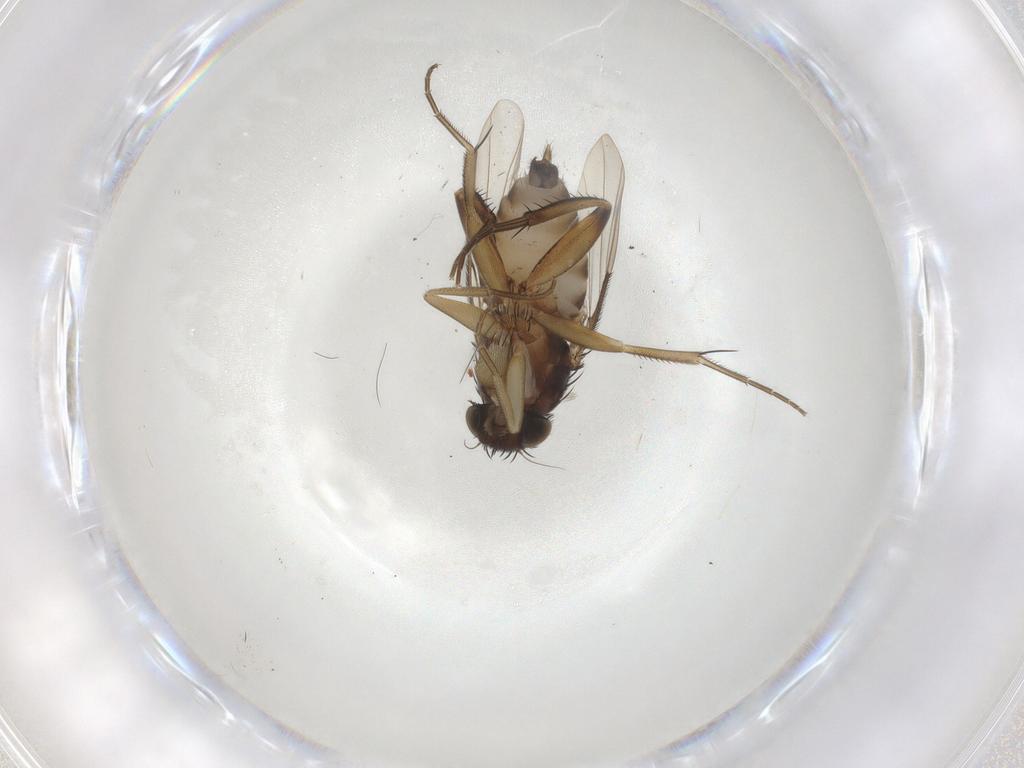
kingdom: Animalia
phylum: Arthropoda
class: Insecta
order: Diptera
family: Phoridae
